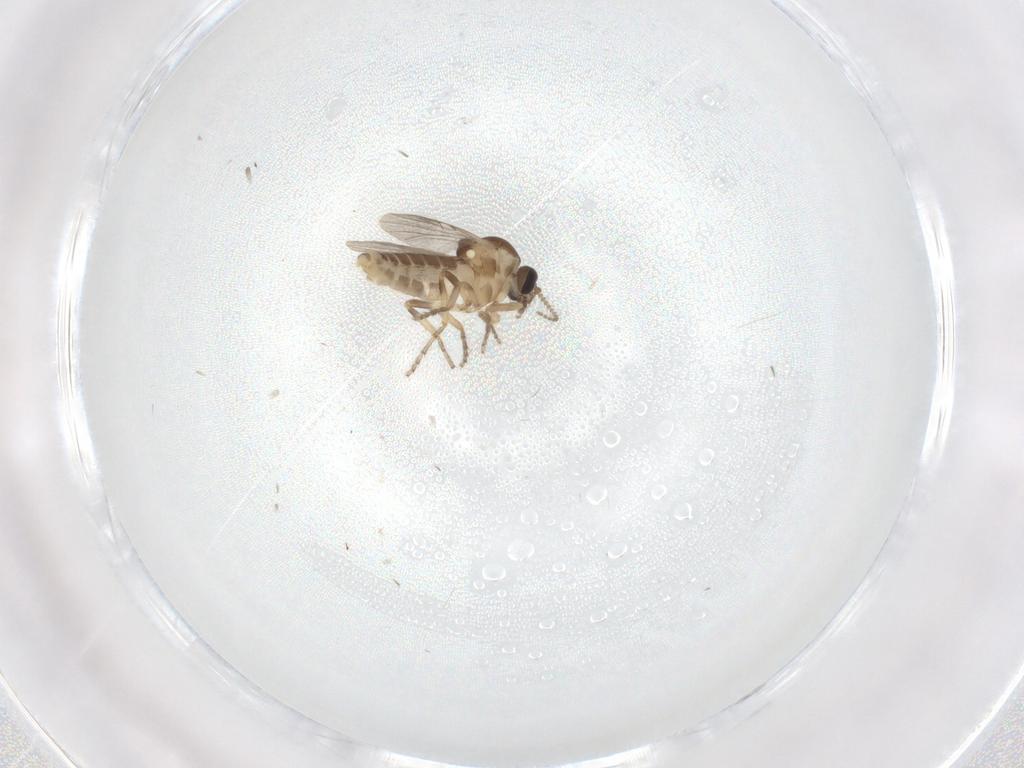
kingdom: Animalia
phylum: Arthropoda
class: Insecta
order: Diptera
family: Ceratopogonidae
